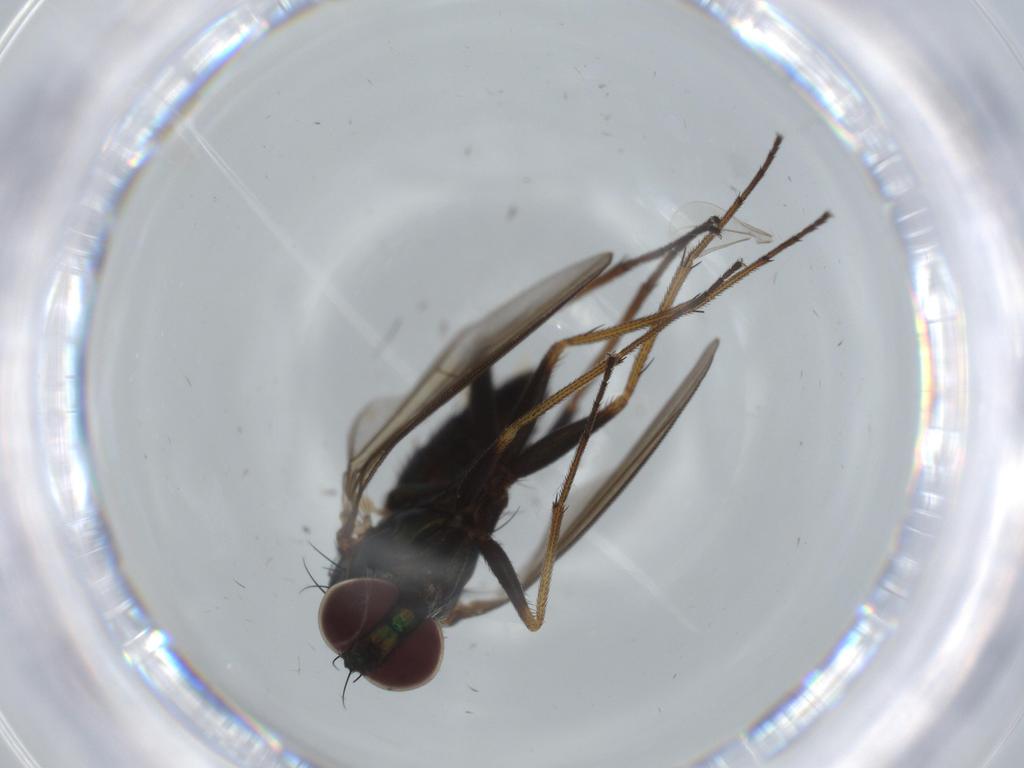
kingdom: Animalia
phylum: Arthropoda
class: Insecta
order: Diptera
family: Dolichopodidae
